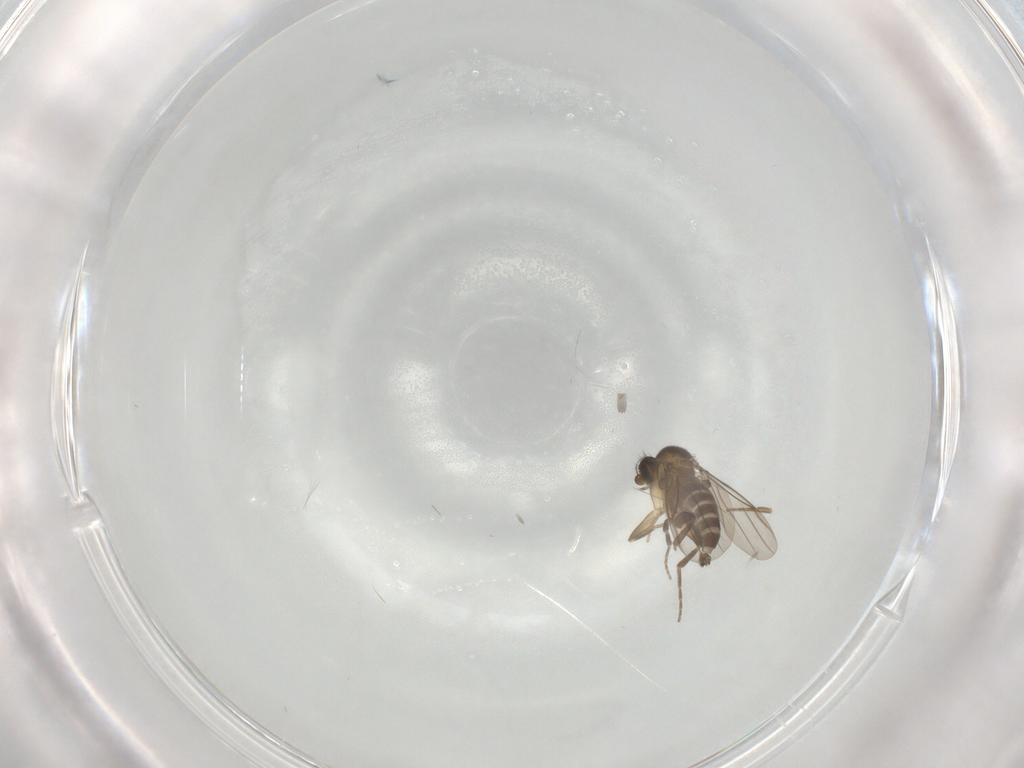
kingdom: Animalia
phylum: Arthropoda
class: Insecta
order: Diptera
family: Phoridae
